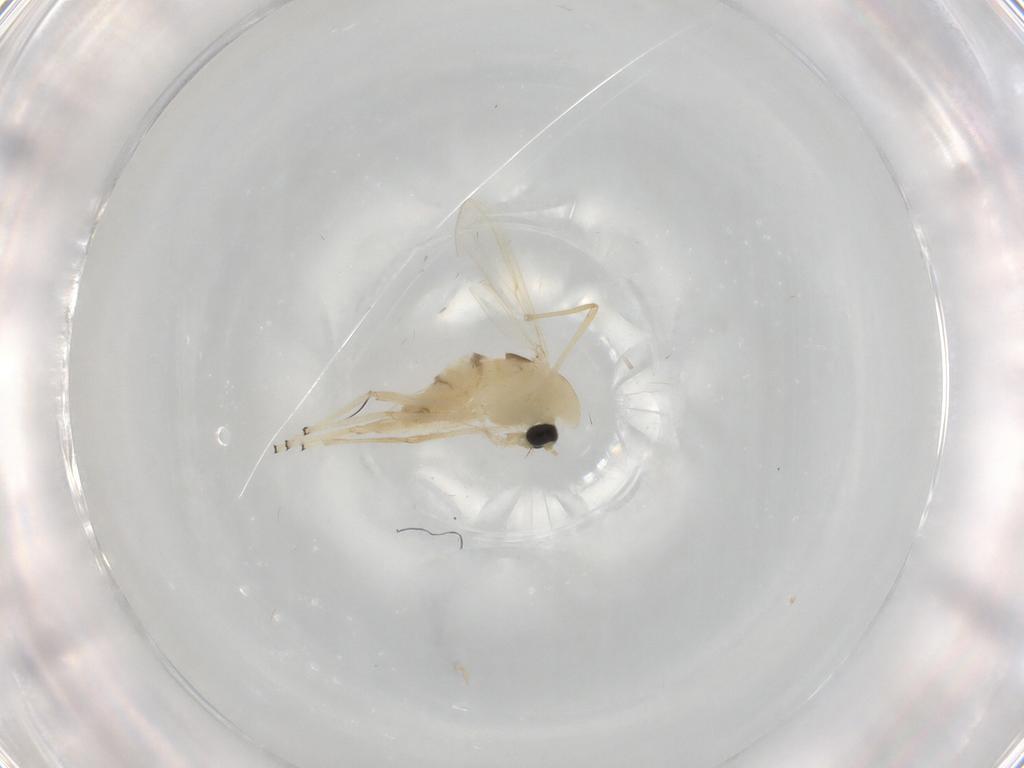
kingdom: Animalia
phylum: Arthropoda
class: Insecta
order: Diptera
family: Chironomidae
